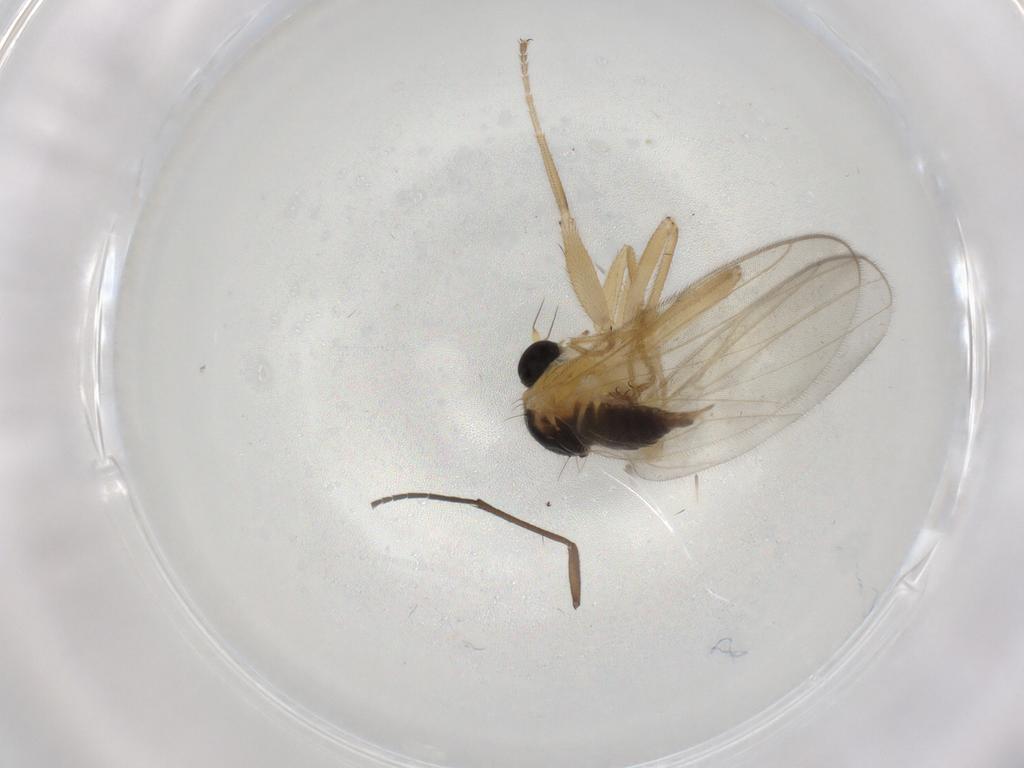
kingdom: Animalia
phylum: Arthropoda
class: Insecta
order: Diptera
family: Hybotidae
